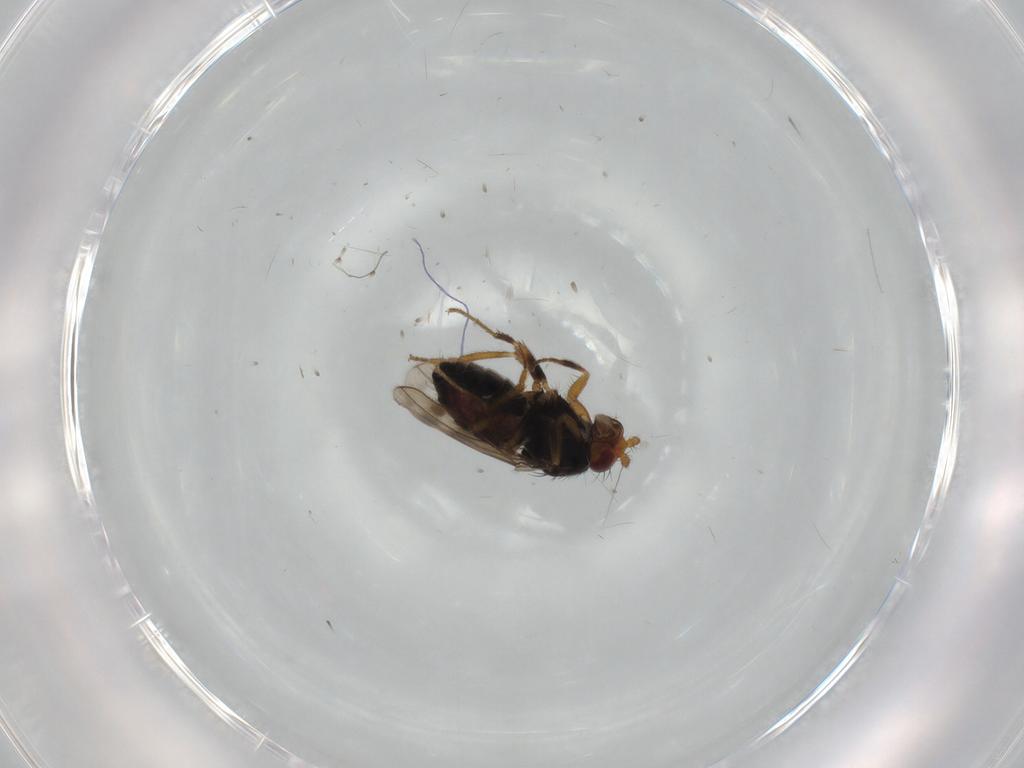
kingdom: Animalia
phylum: Arthropoda
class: Insecta
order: Diptera
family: Sphaeroceridae
